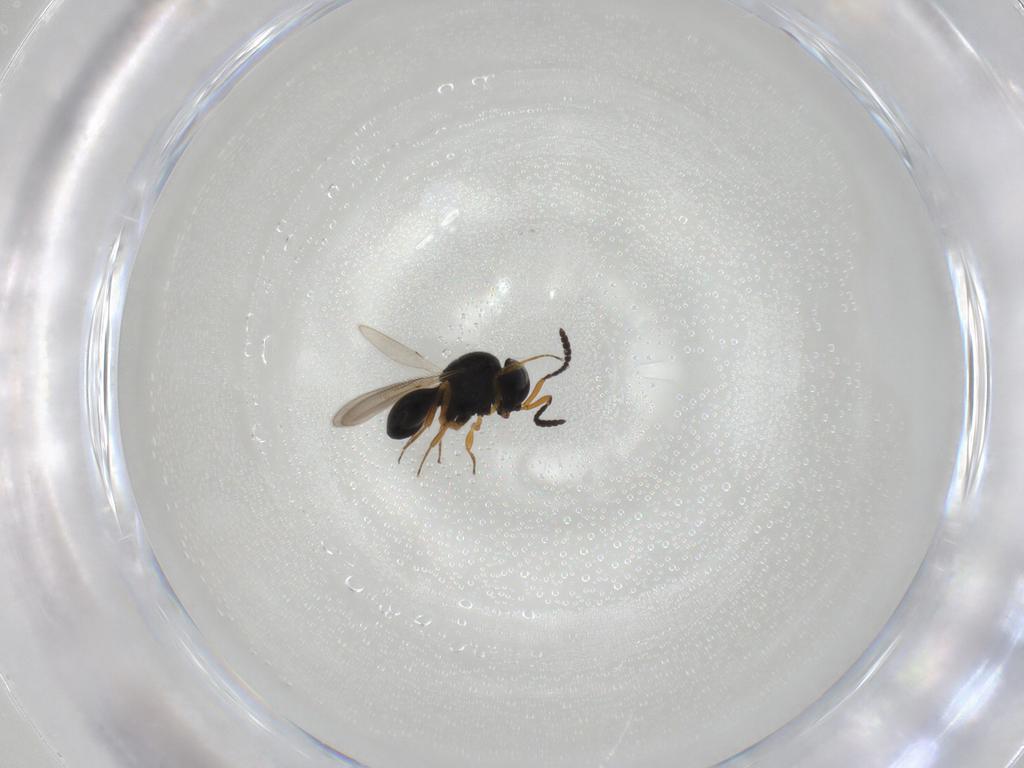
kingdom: Animalia
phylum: Arthropoda
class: Insecta
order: Hymenoptera
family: Scelionidae
